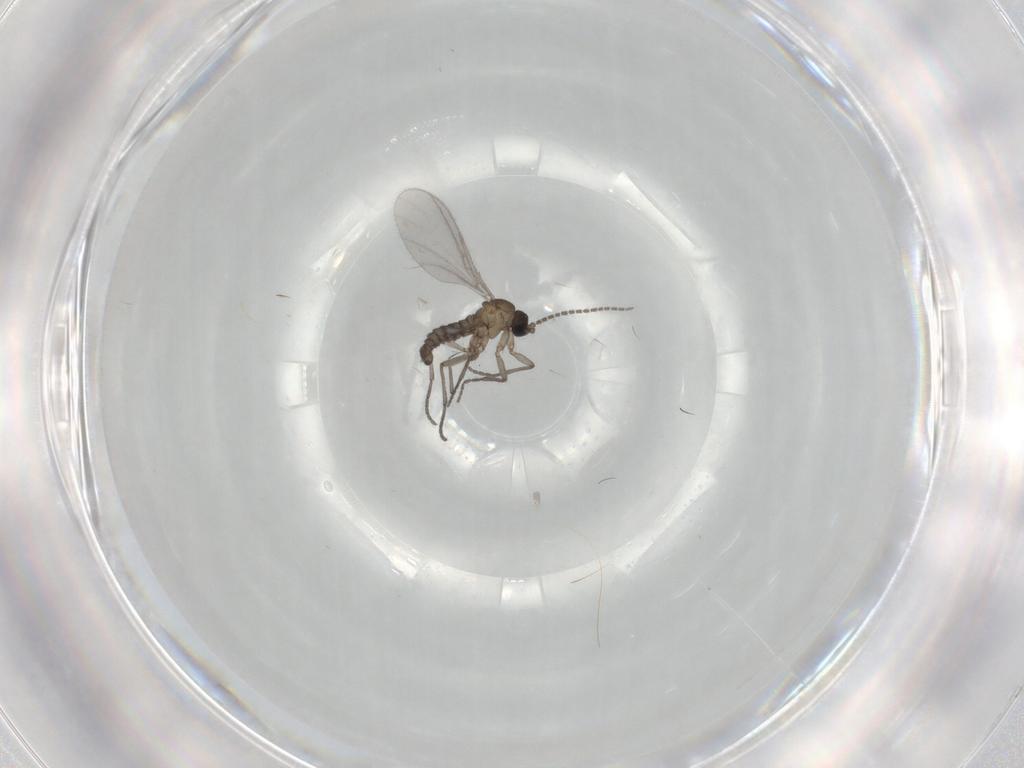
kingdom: Animalia
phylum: Arthropoda
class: Insecta
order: Diptera
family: Sciaridae
